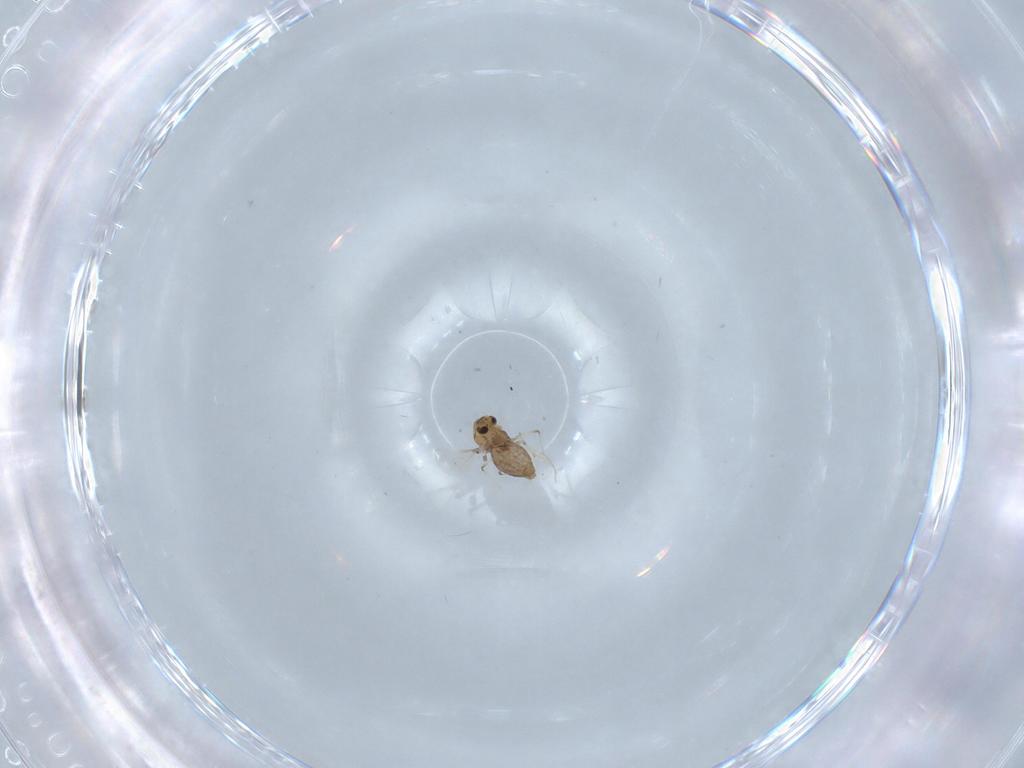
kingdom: Animalia
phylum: Arthropoda
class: Insecta
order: Diptera
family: Chironomidae
